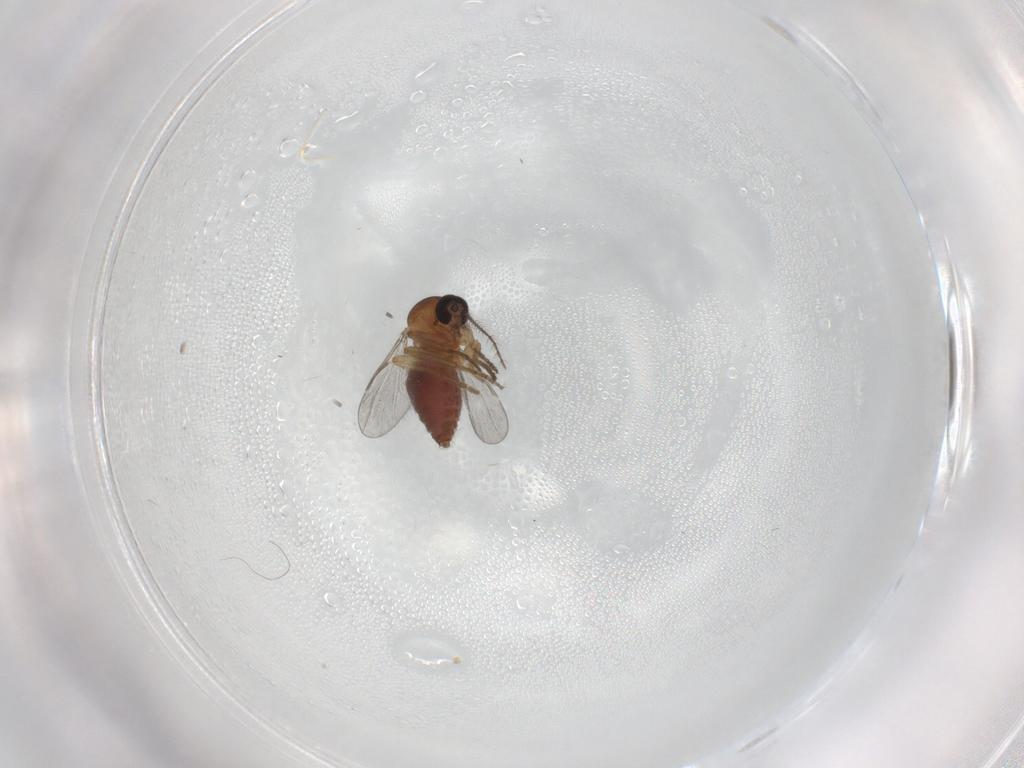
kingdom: Animalia
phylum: Arthropoda
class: Insecta
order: Diptera
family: Ceratopogonidae
